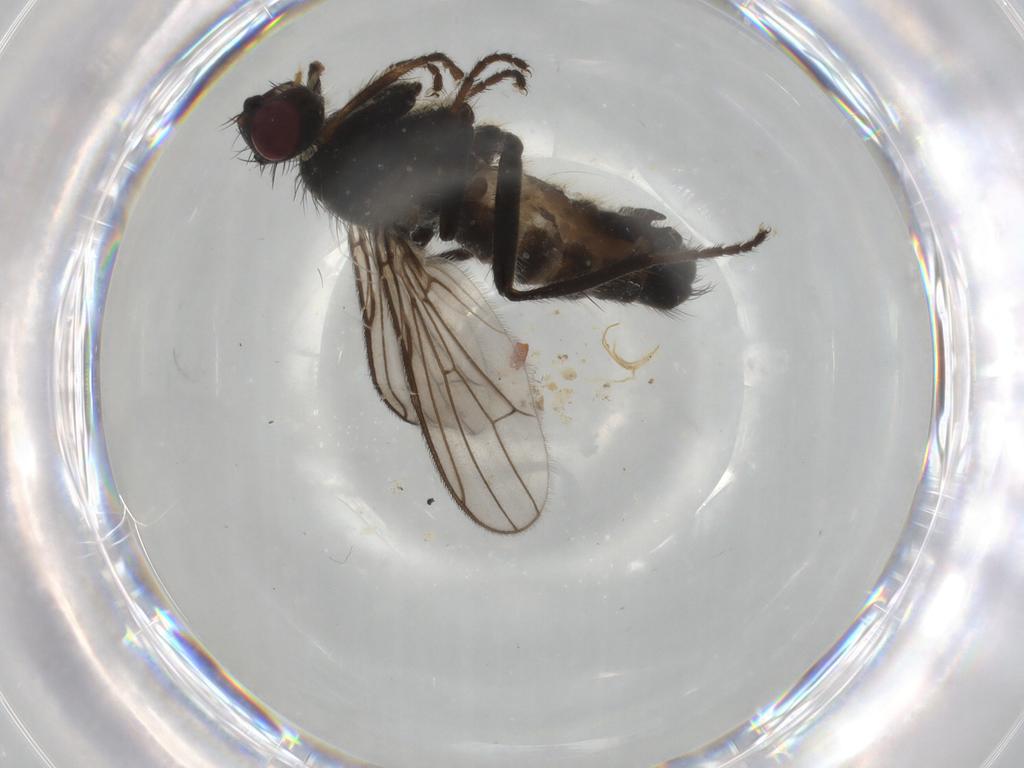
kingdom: Animalia
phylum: Arthropoda
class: Insecta
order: Diptera
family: Scathophagidae
